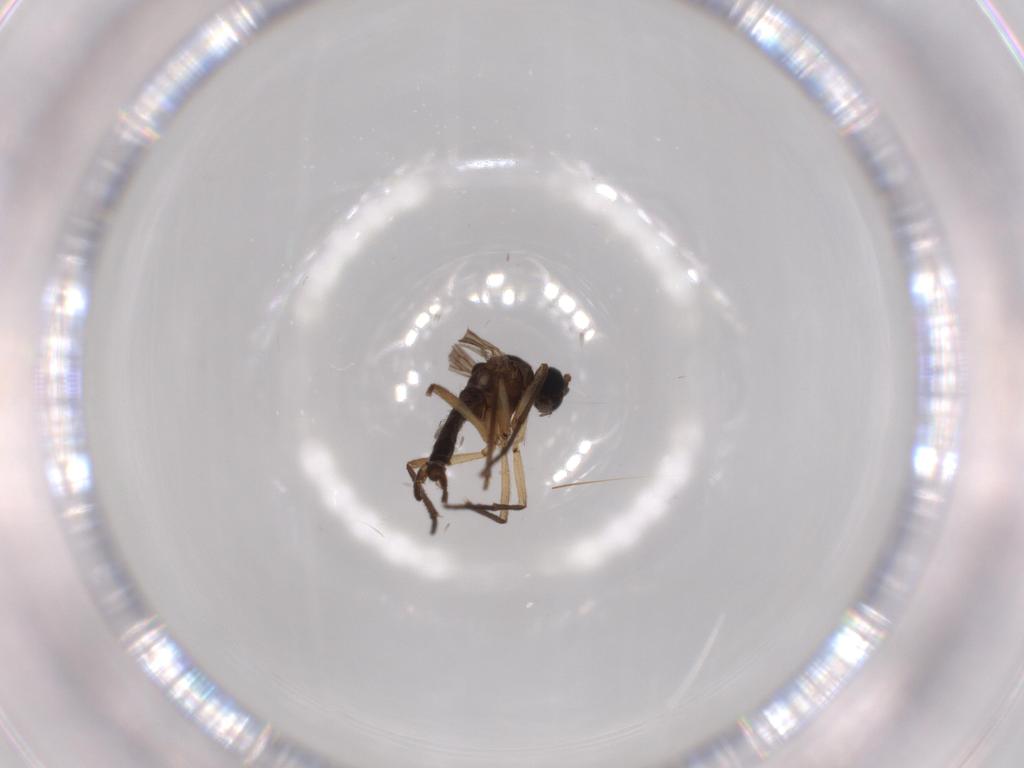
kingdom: Animalia
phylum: Arthropoda
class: Insecta
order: Diptera
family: Sciaridae
